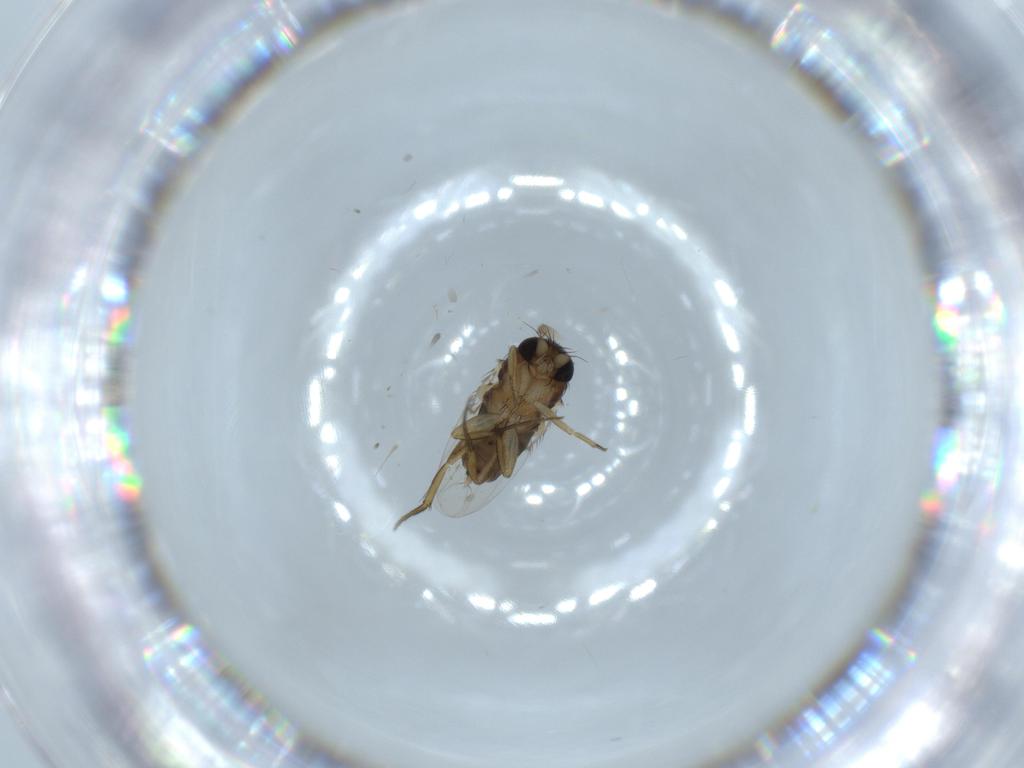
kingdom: Animalia
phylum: Arthropoda
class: Insecta
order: Diptera
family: Phoridae
